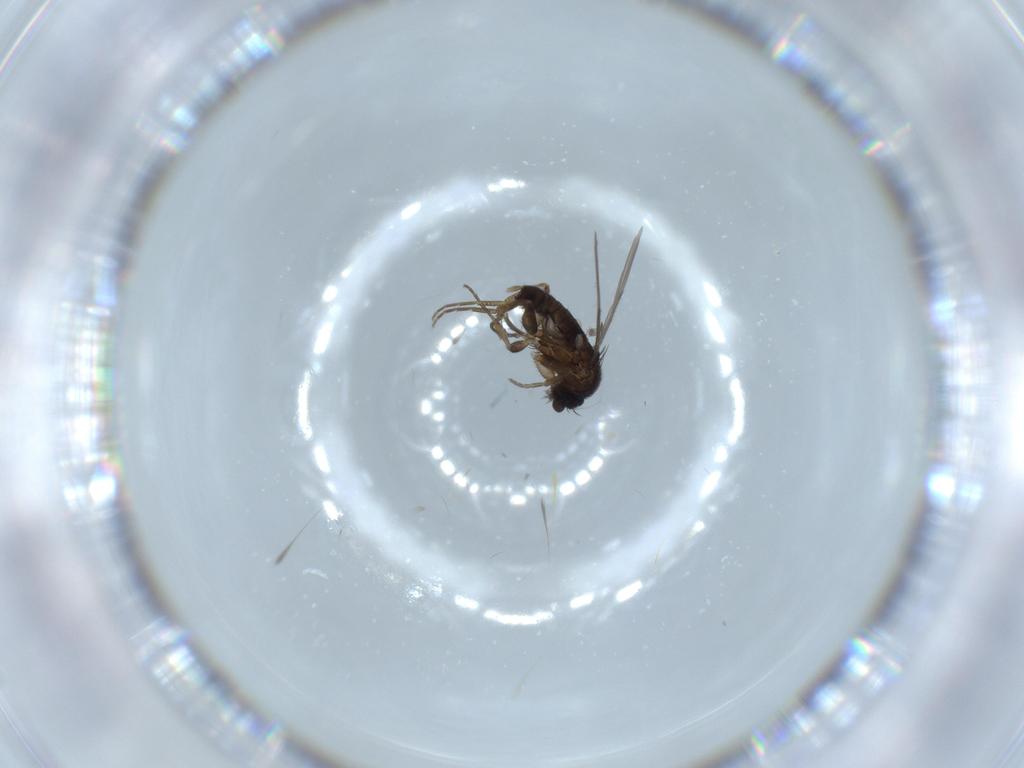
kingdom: Animalia
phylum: Arthropoda
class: Insecta
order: Diptera
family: Phoridae
